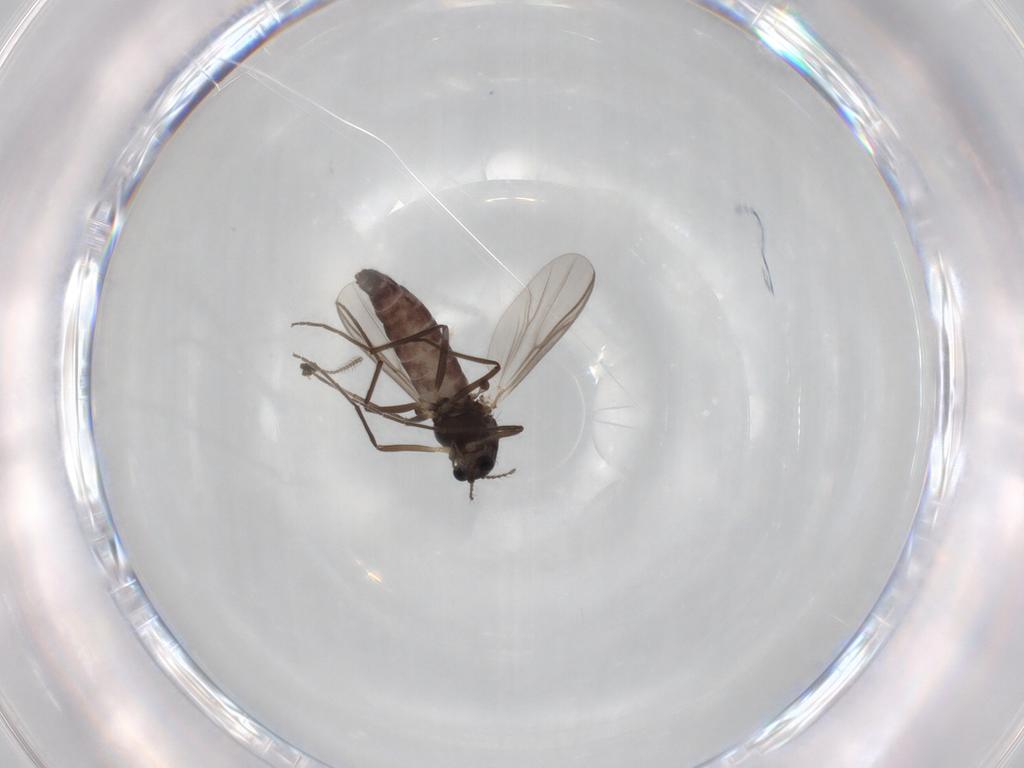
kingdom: Animalia
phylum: Arthropoda
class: Insecta
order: Diptera
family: Chironomidae
